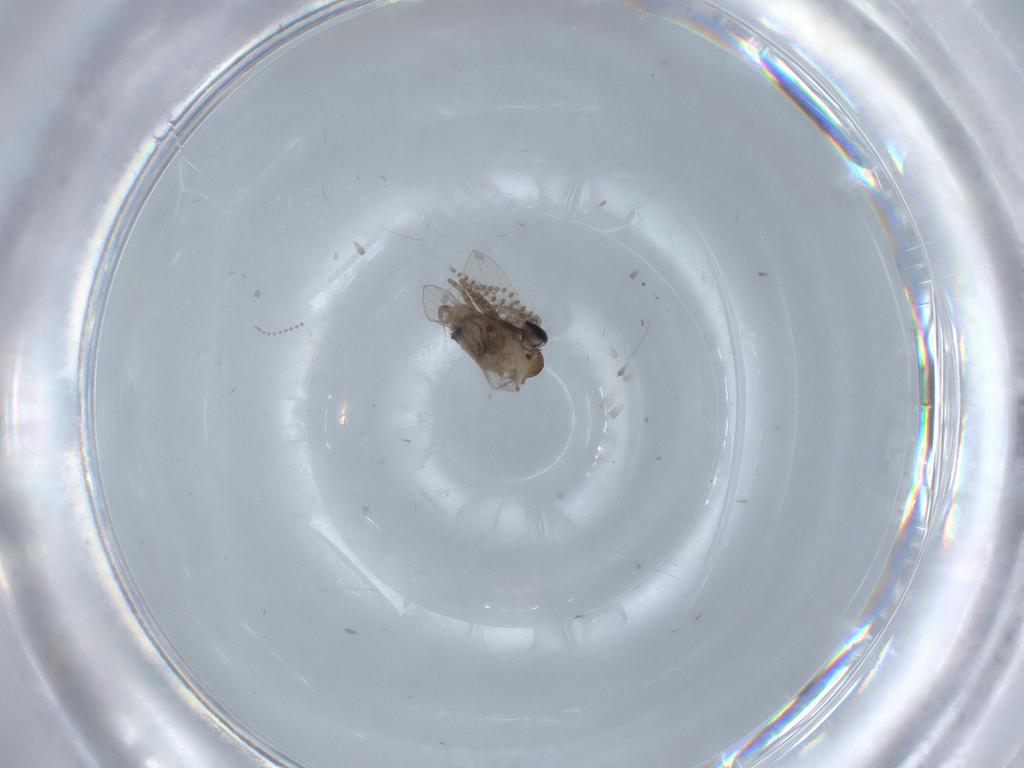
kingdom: Animalia
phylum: Arthropoda
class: Insecta
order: Diptera
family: Psychodidae
